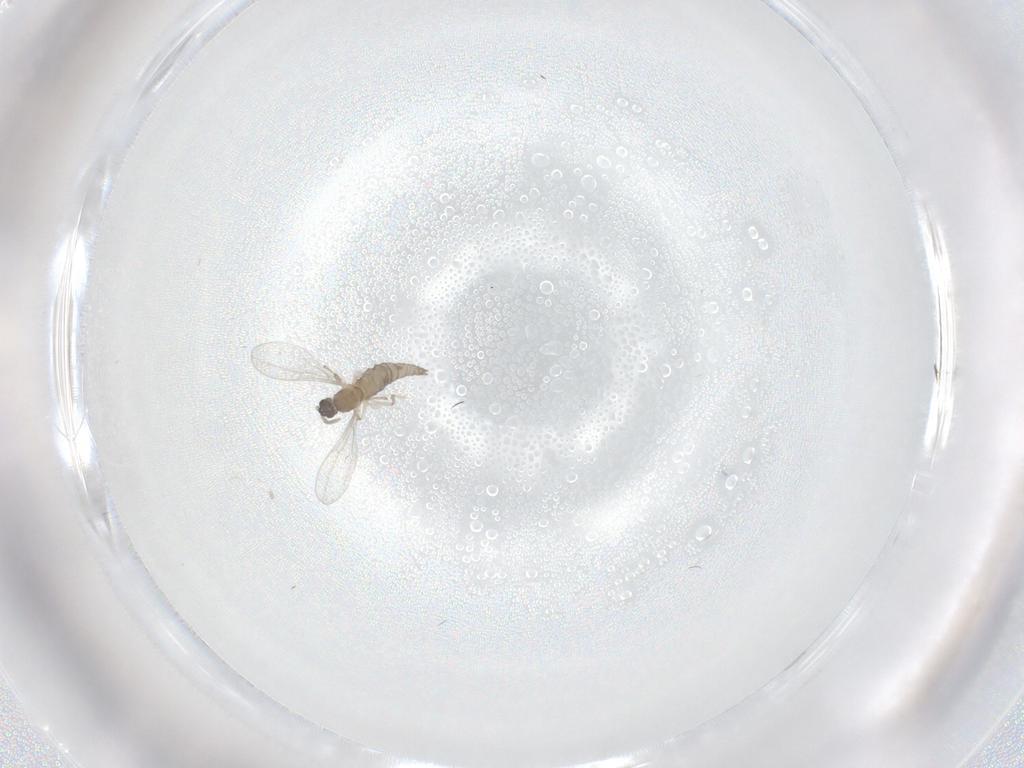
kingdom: Animalia
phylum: Arthropoda
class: Insecta
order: Diptera
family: Cecidomyiidae
